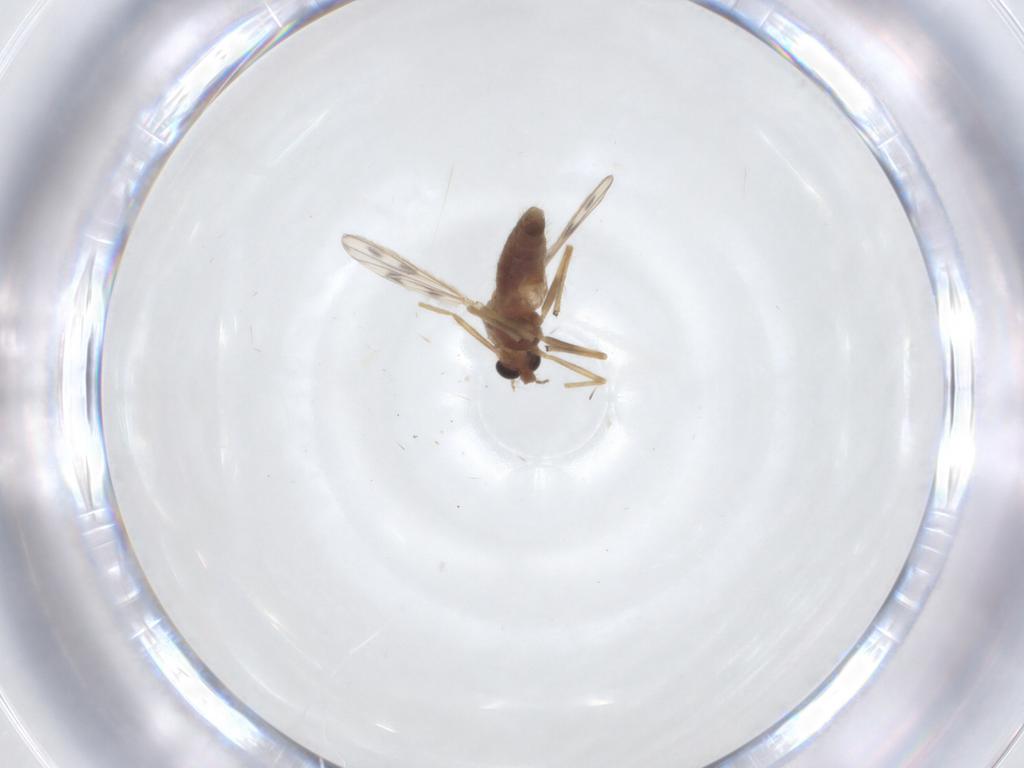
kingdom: Animalia
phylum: Arthropoda
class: Insecta
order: Diptera
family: Chironomidae
